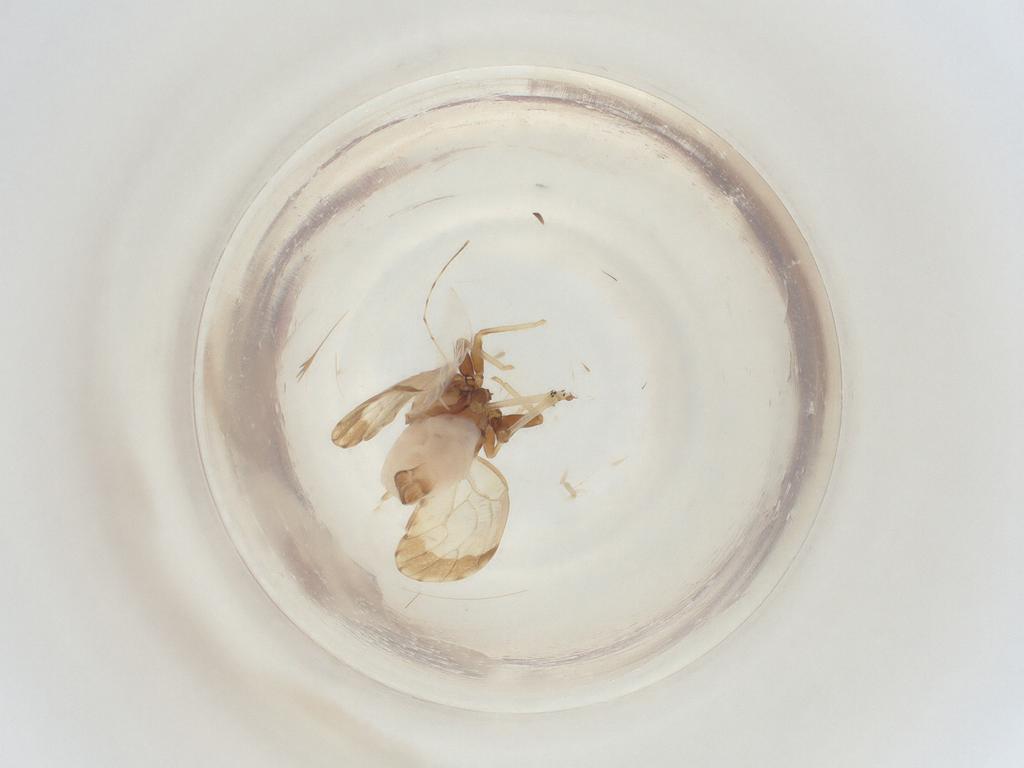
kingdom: Animalia
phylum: Arthropoda
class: Insecta
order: Lepidoptera
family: Pterophoridae
